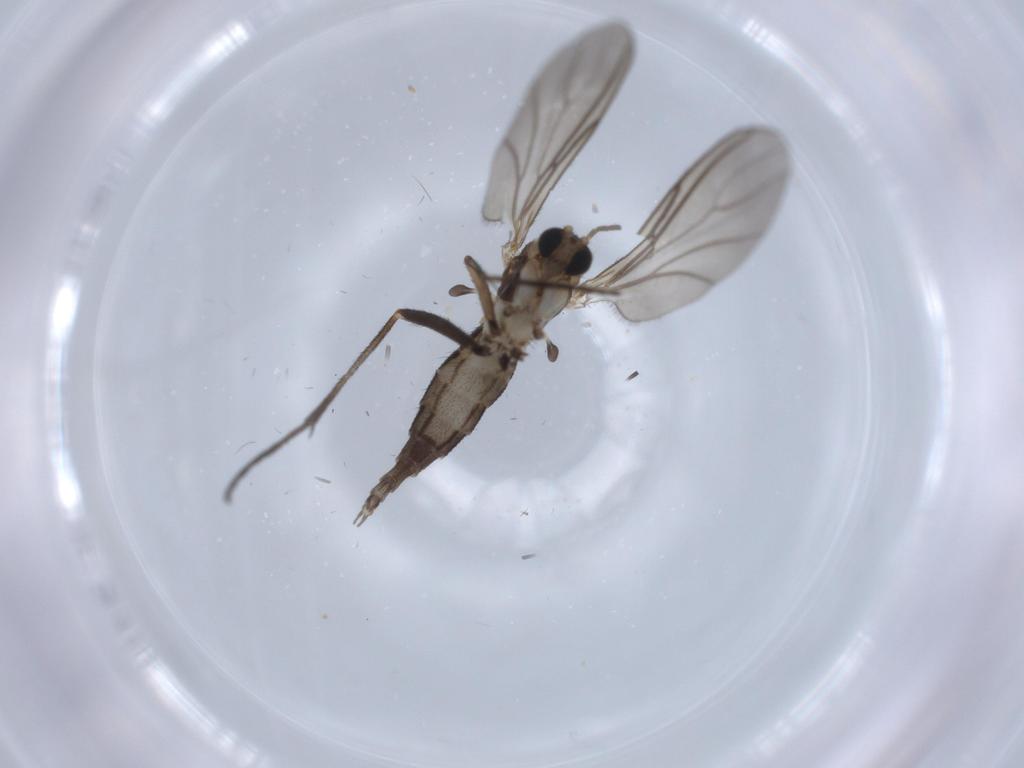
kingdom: Animalia
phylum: Arthropoda
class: Insecta
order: Diptera
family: Sciaridae
